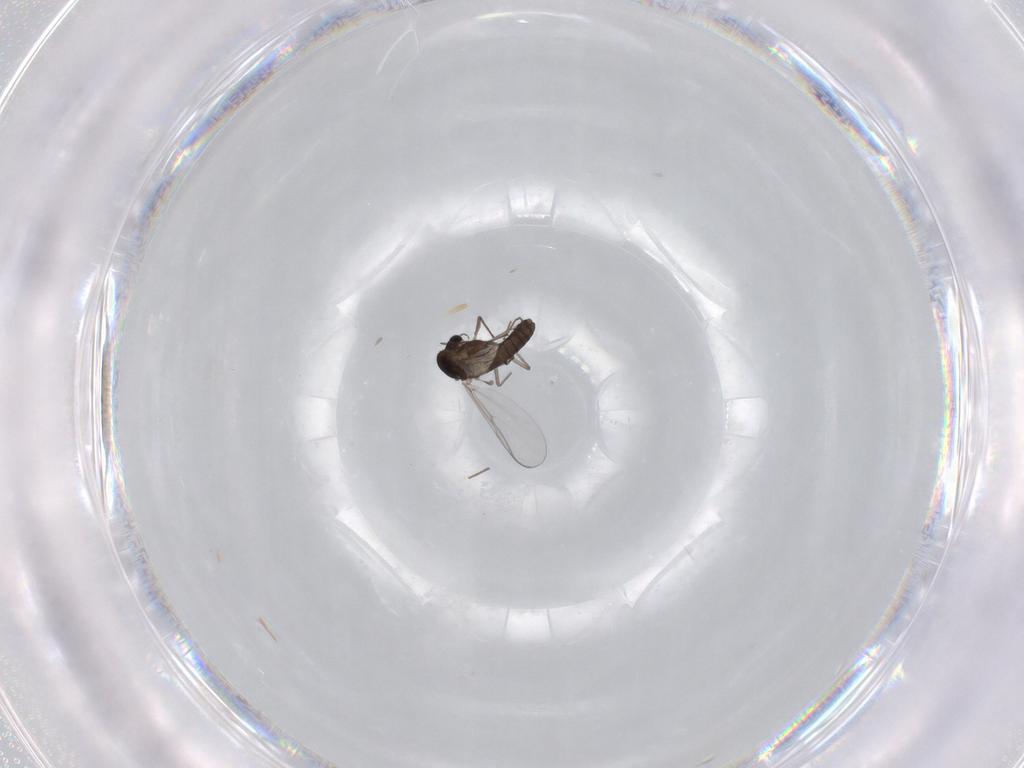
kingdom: Animalia
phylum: Arthropoda
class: Insecta
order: Diptera
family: Chironomidae
